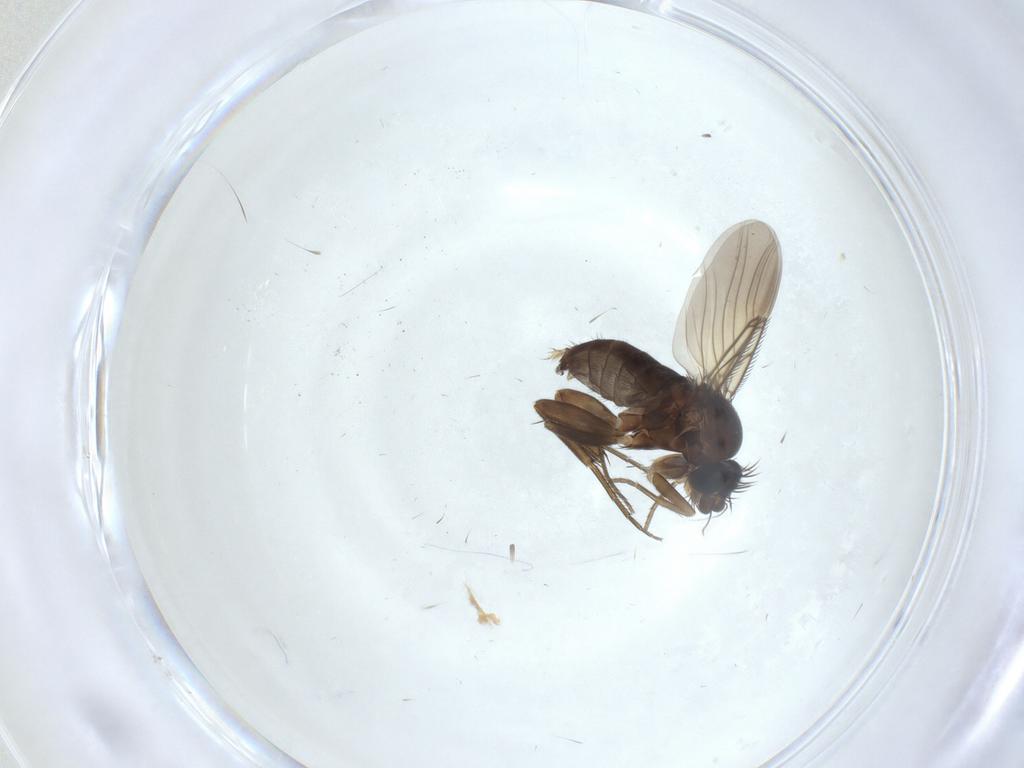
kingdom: Animalia
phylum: Arthropoda
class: Insecta
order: Diptera
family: Phoridae
